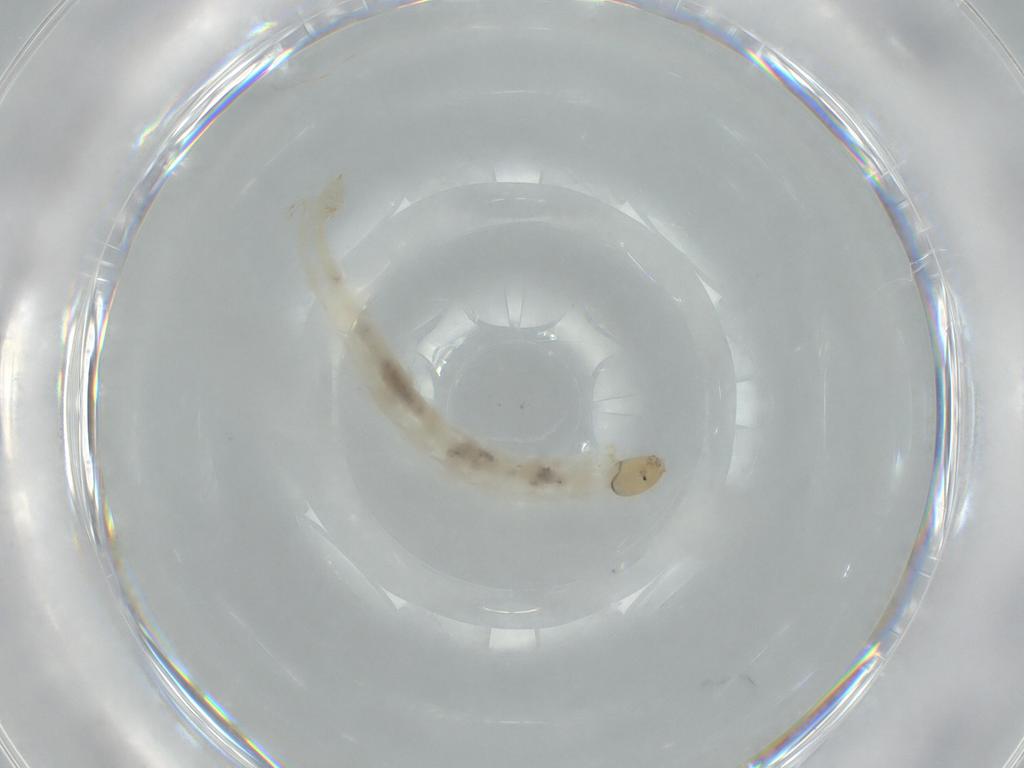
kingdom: Animalia
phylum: Arthropoda
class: Insecta
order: Diptera
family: Chironomidae
